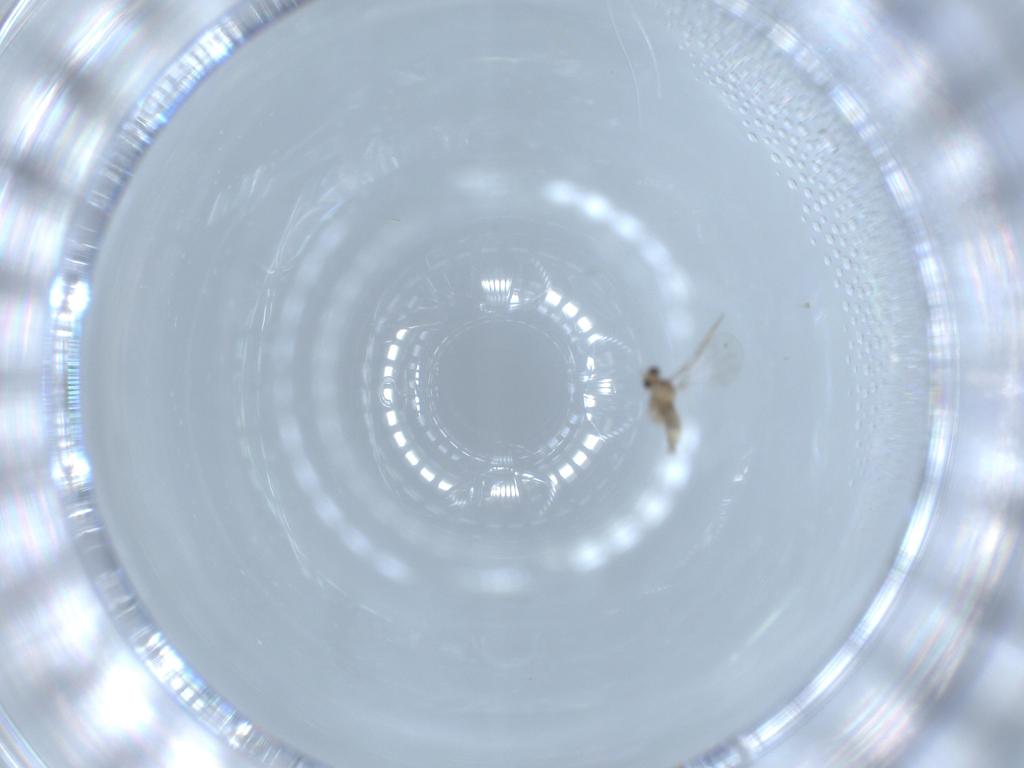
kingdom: Animalia
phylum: Arthropoda
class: Insecta
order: Diptera
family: Cecidomyiidae
